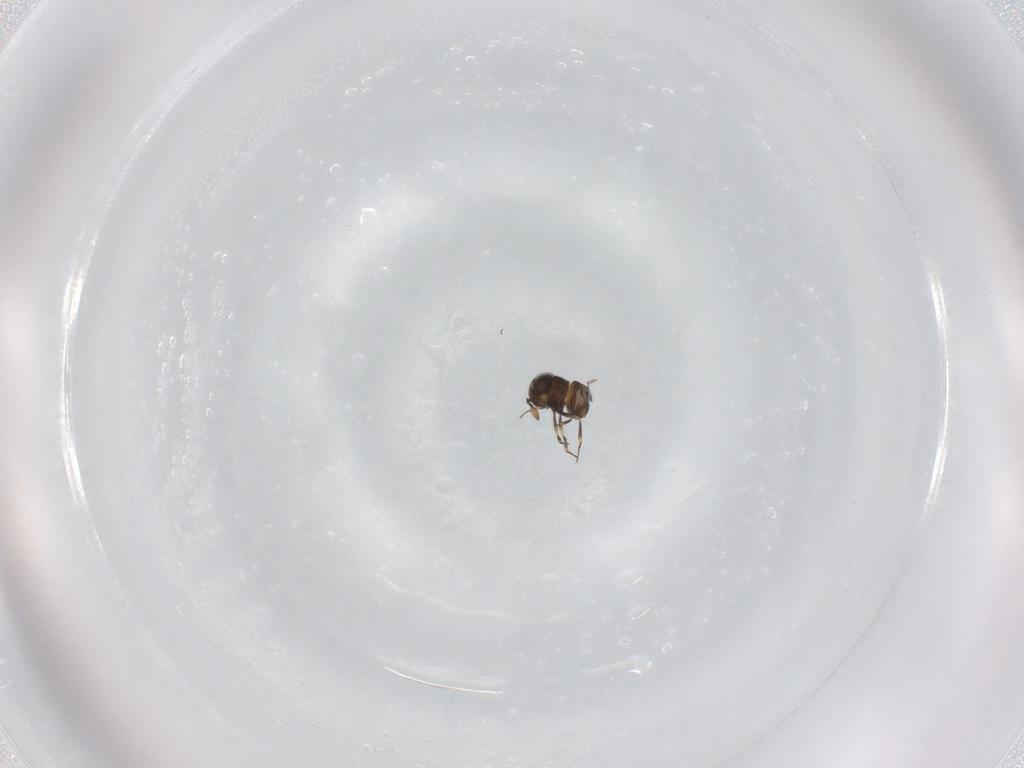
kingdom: Animalia
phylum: Arthropoda
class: Insecta
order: Hymenoptera
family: Scelionidae
